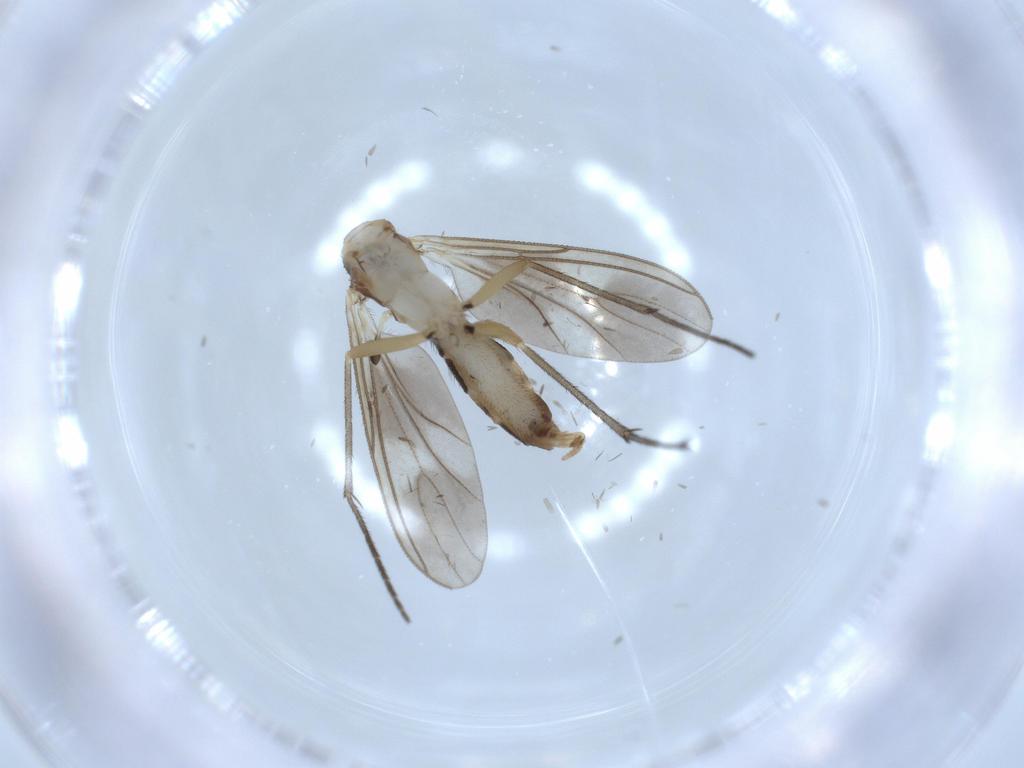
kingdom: Animalia
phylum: Arthropoda
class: Insecta
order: Diptera
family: Sciaridae
